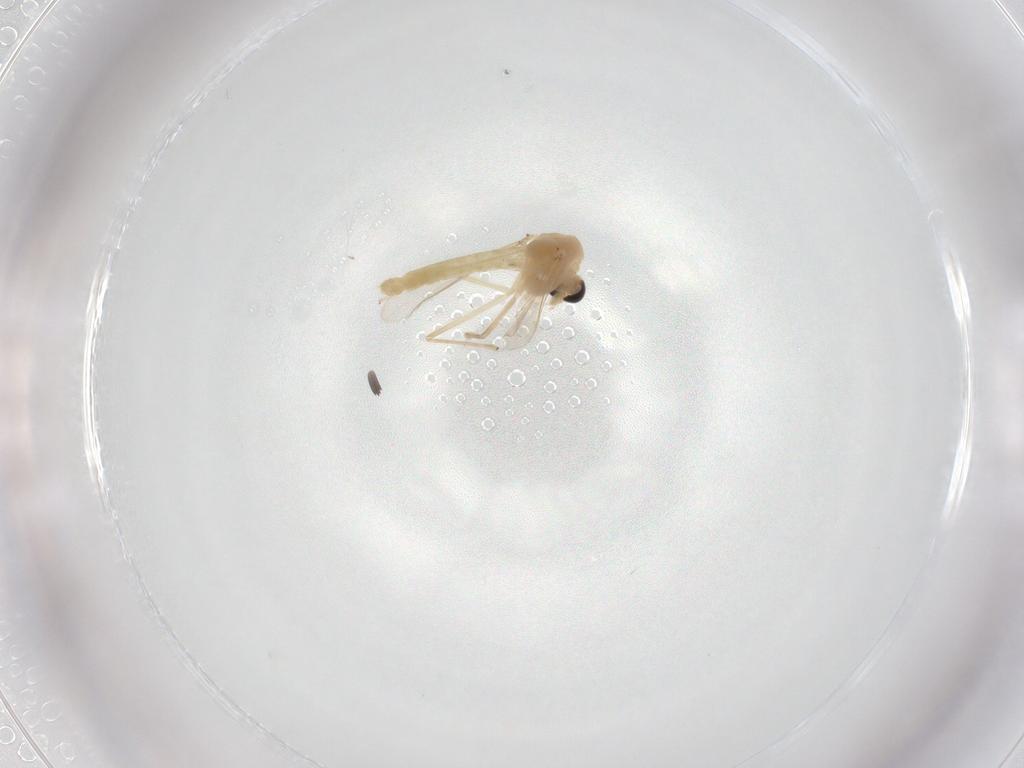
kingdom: Animalia
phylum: Arthropoda
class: Insecta
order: Diptera
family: Chironomidae
